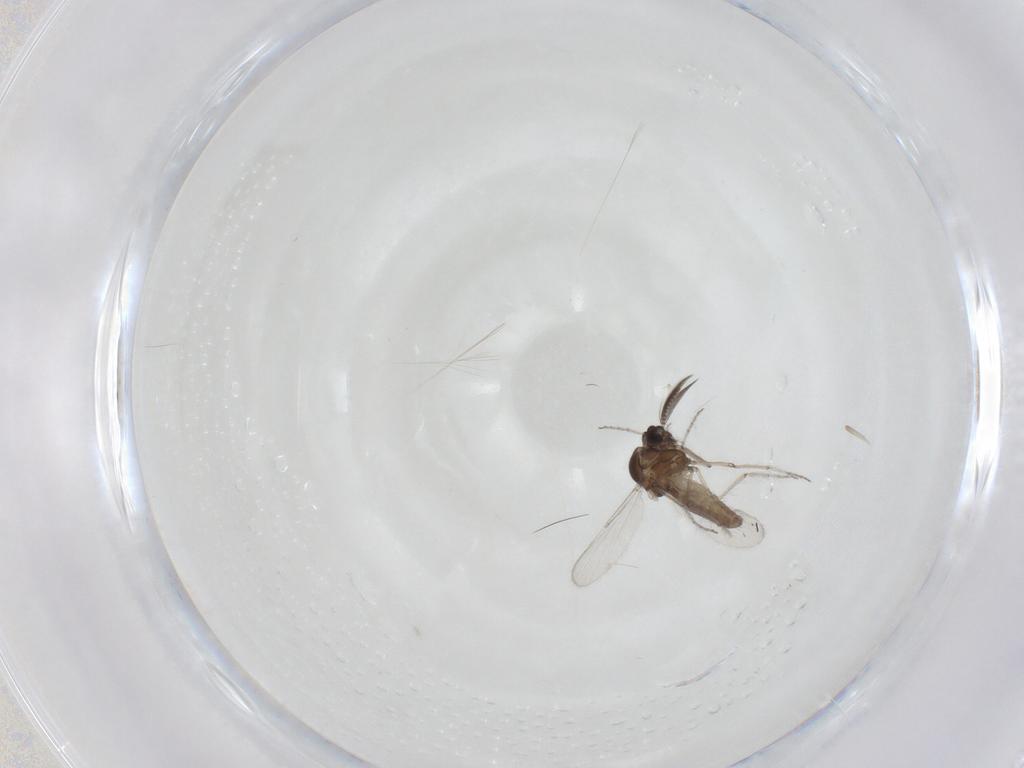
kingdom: Animalia
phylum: Arthropoda
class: Insecta
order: Diptera
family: Ceratopogonidae
